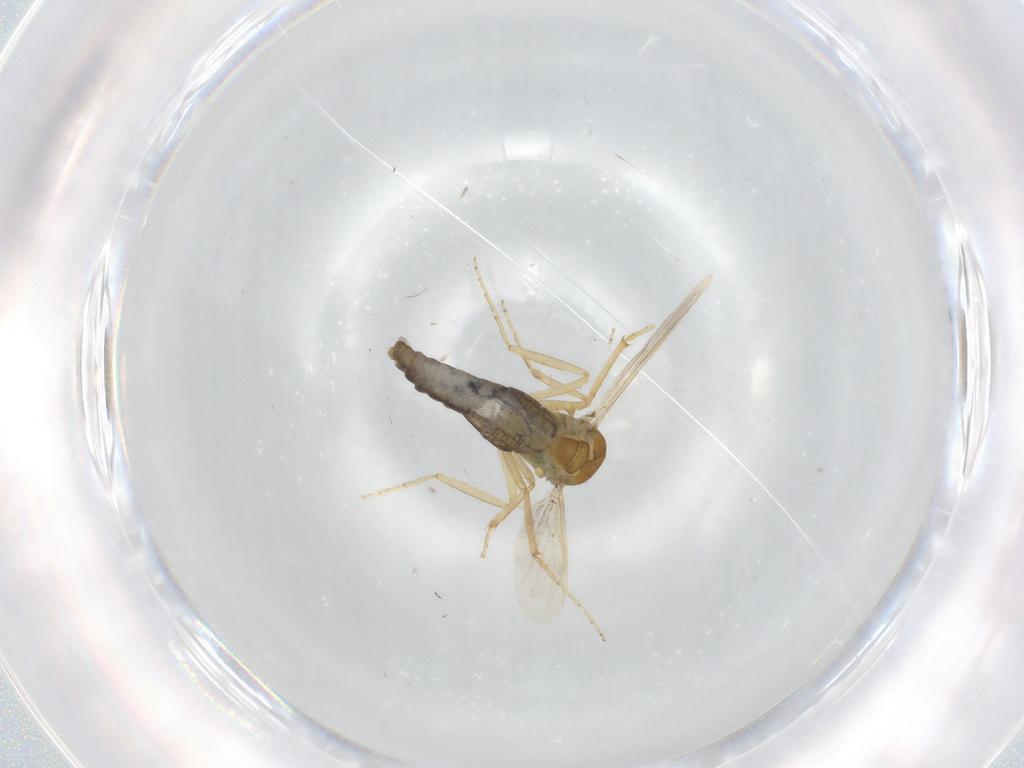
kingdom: Animalia
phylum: Arthropoda
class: Insecta
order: Diptera
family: Ceratopogonidae
